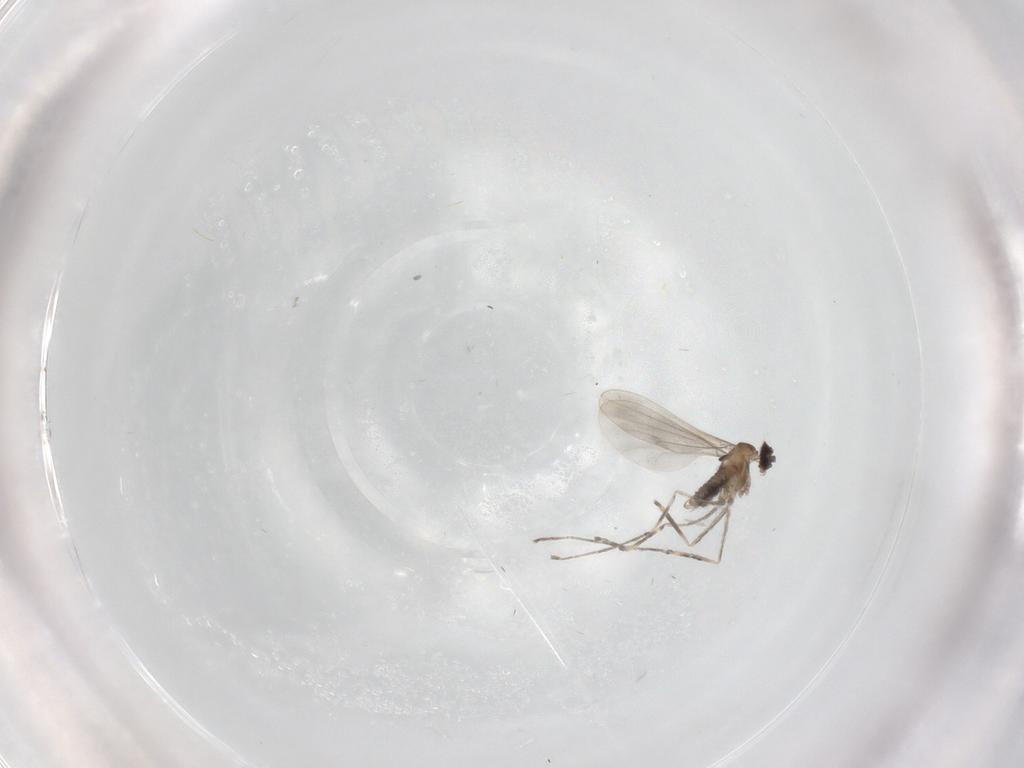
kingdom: Animalia
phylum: Arthropoda
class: Insecta
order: Diptera
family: Cecidomyiidae
